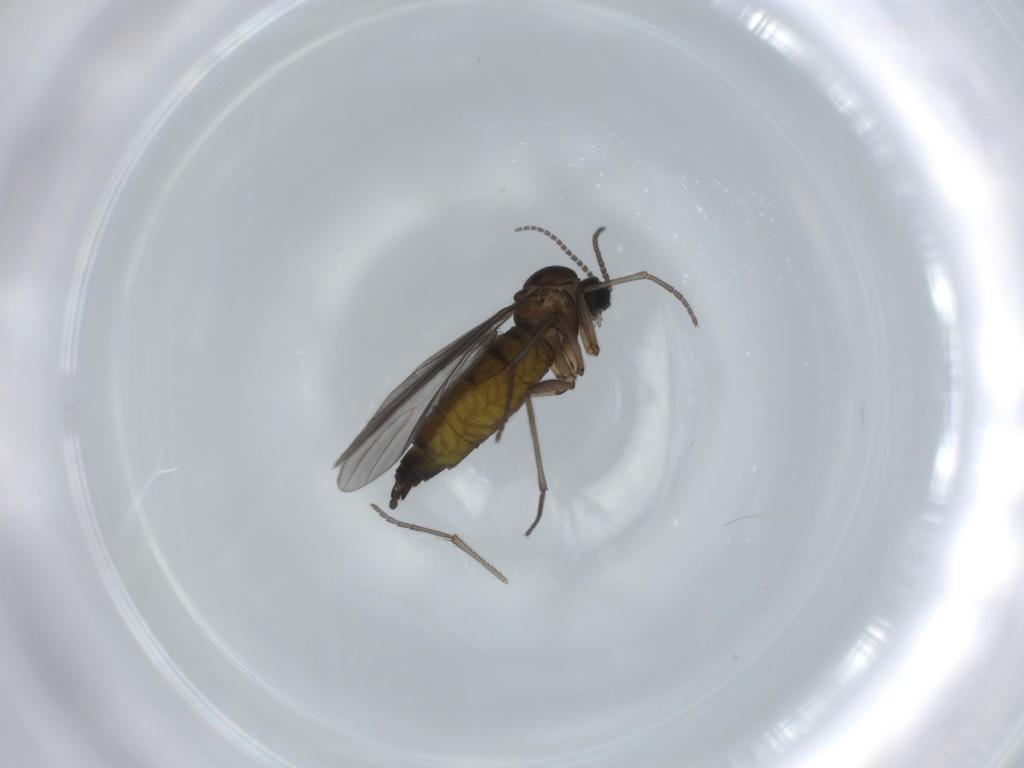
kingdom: Animalia
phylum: Arthropoda
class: Insecta
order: Diptera
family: Sciaridae
